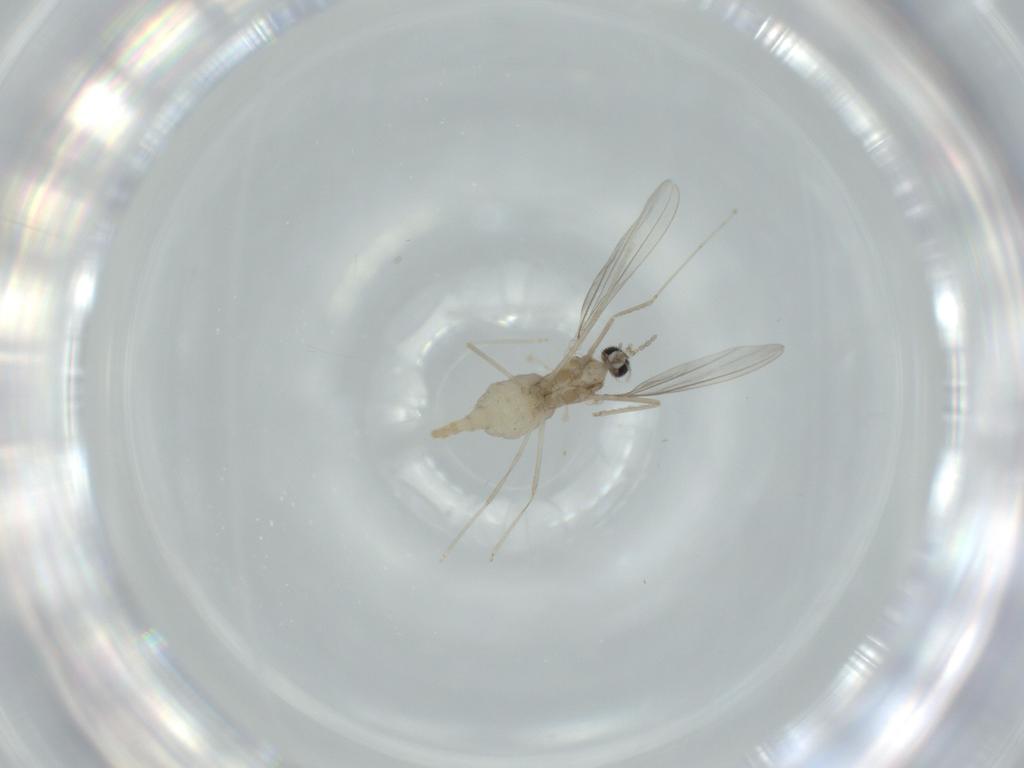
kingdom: Animalia
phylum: Arthropoda
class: Insecta
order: Diptera
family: Cecidomyiidae
